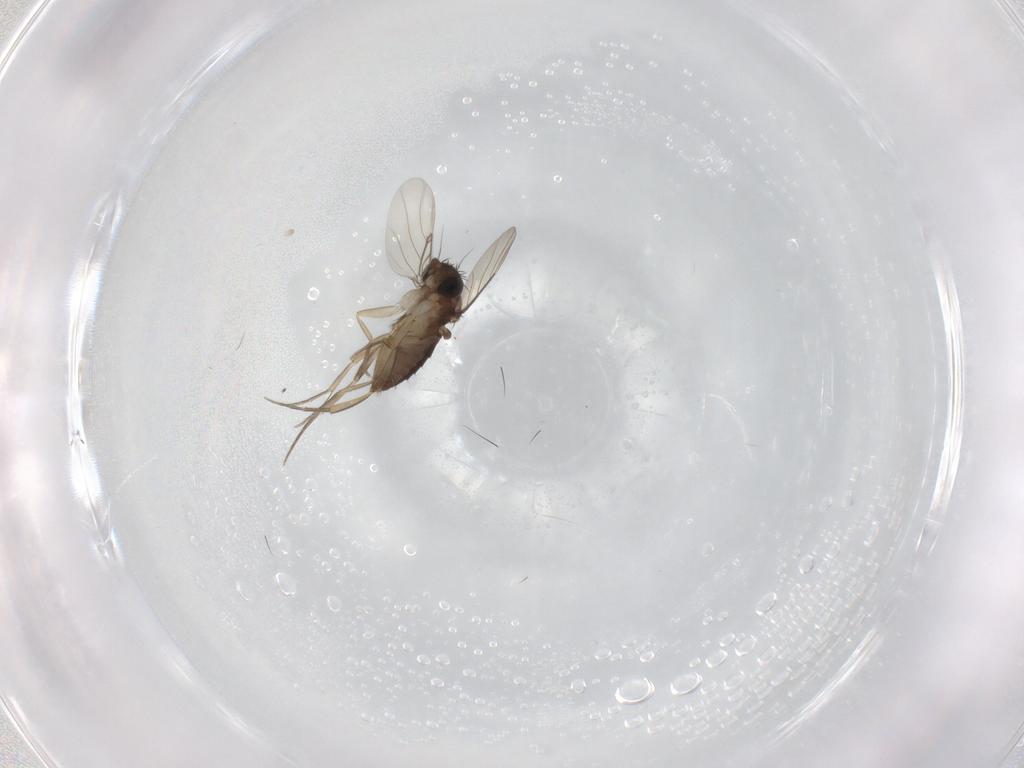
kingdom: Animalia
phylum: Arthropoda
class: Insecta
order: Diptera
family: Phoridae
